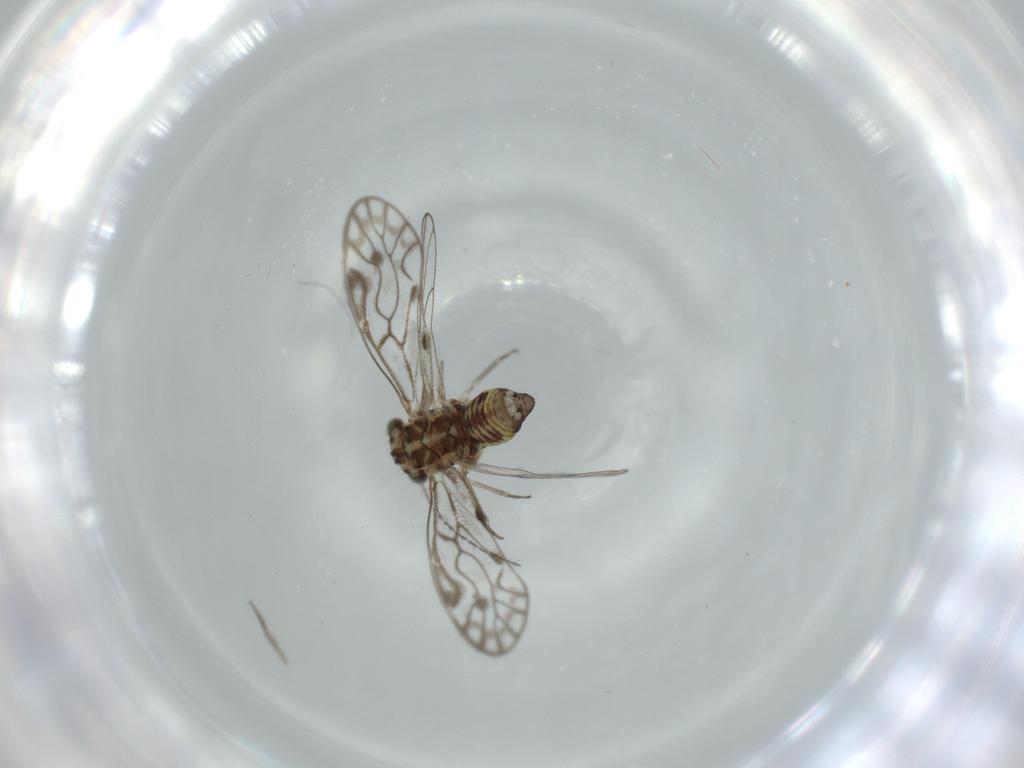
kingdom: Animalia
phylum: Arthropoda
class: Insecta
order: Psocodea
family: Psocidae
